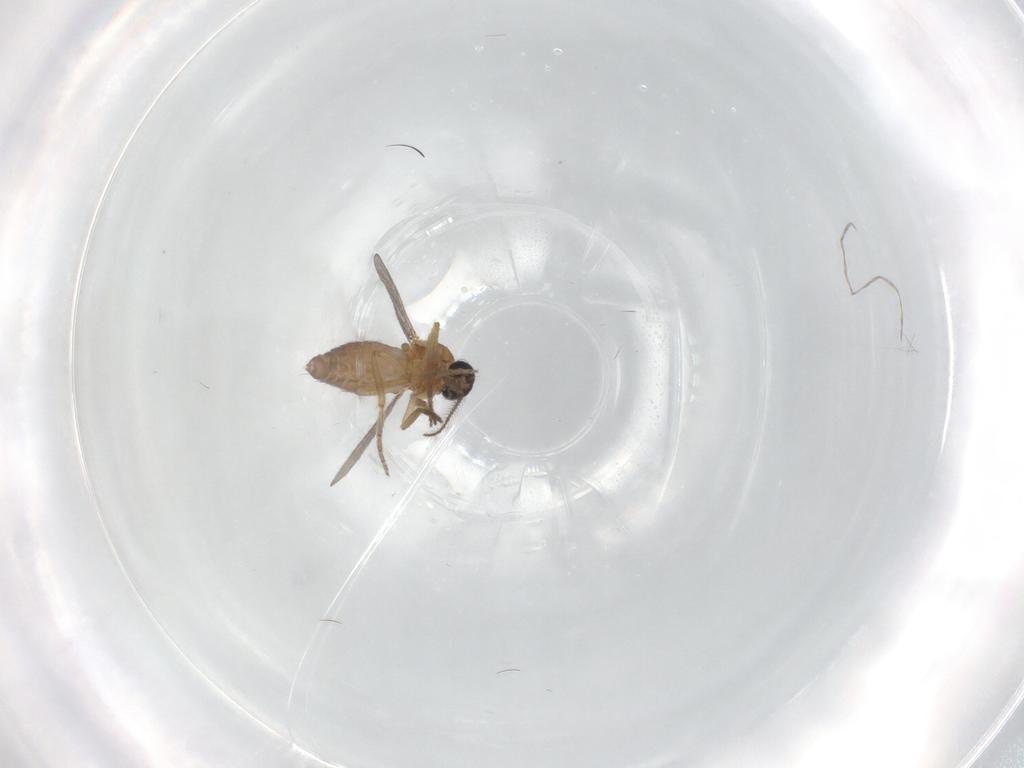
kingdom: Animalia
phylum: Arthropoda
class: Insecta
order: Diptera
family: Ceratopogonidae
